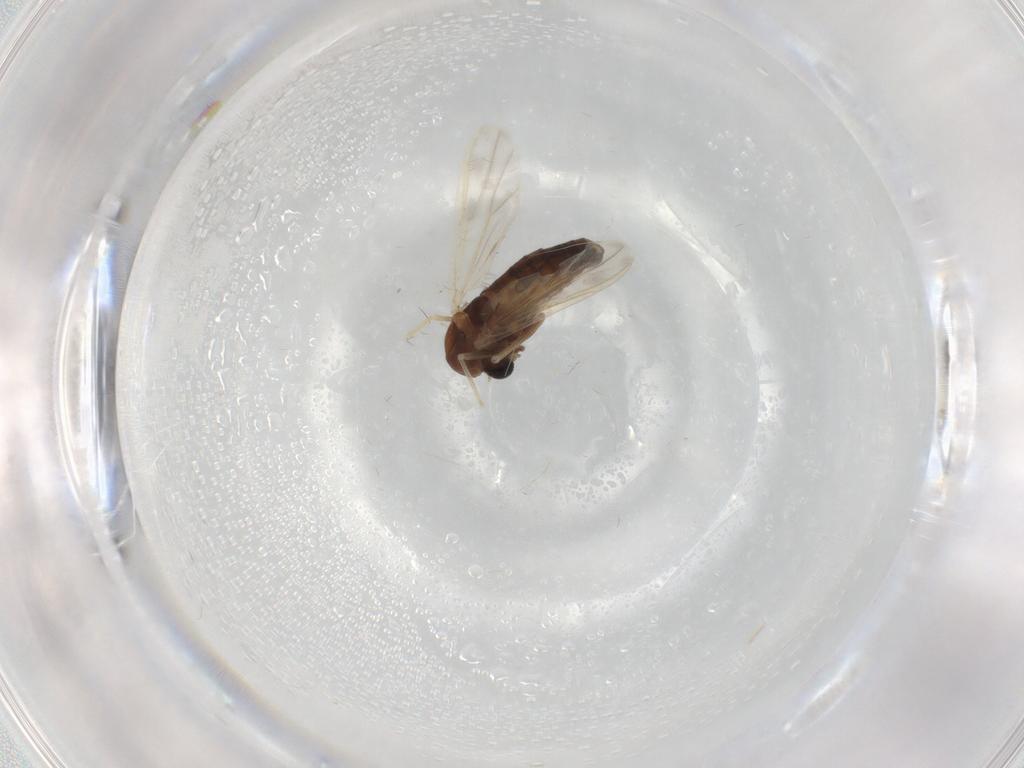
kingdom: Animalia
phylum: Arthropoda
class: Insecta
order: Diptera
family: Chironomidae
